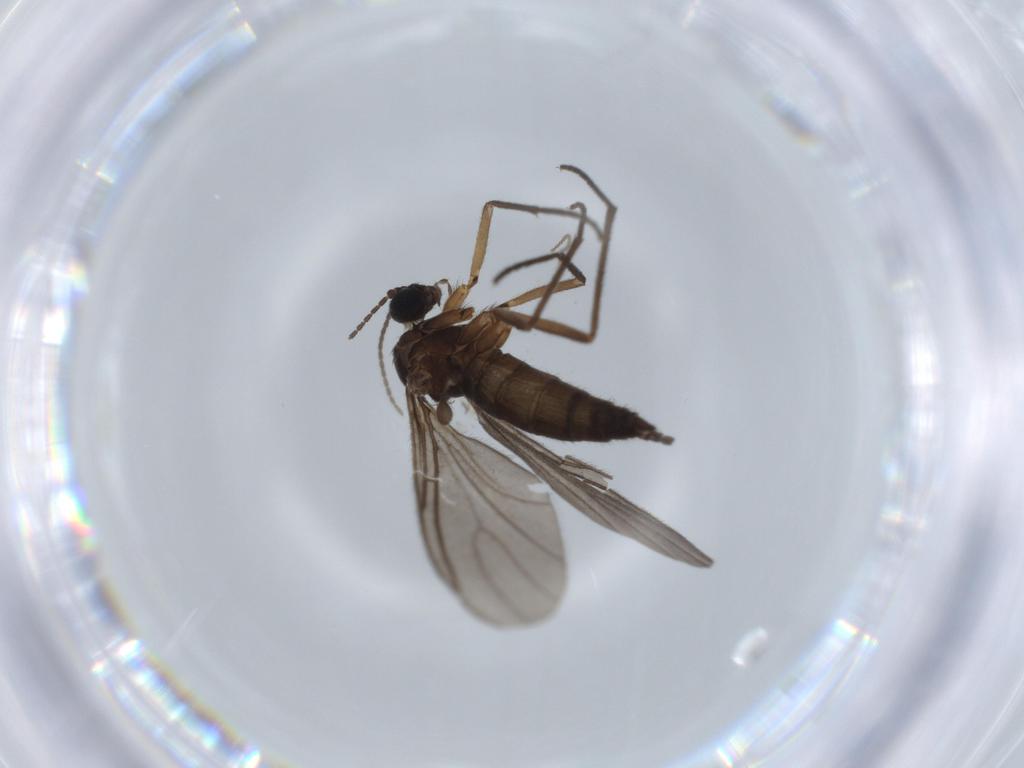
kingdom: Animalia
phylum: Arthropoda
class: Insecta
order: Diptera
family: Sciaridae
